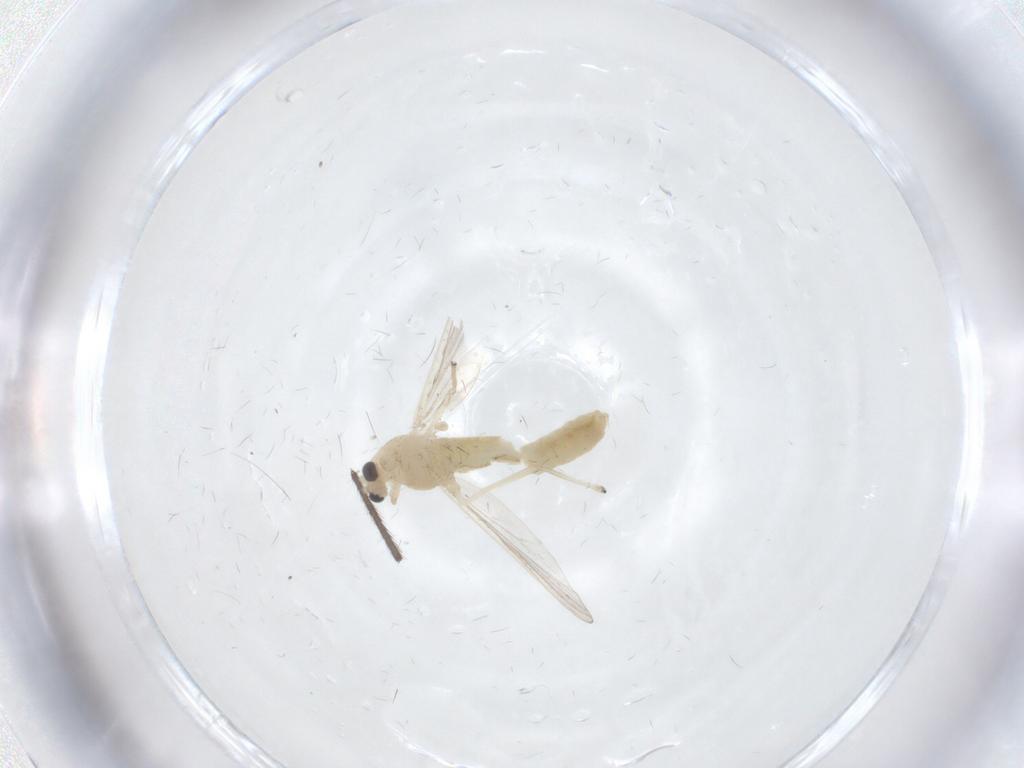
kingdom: Animalia
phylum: Arthropoda
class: Insecta
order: Diptera
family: Chironomidae
